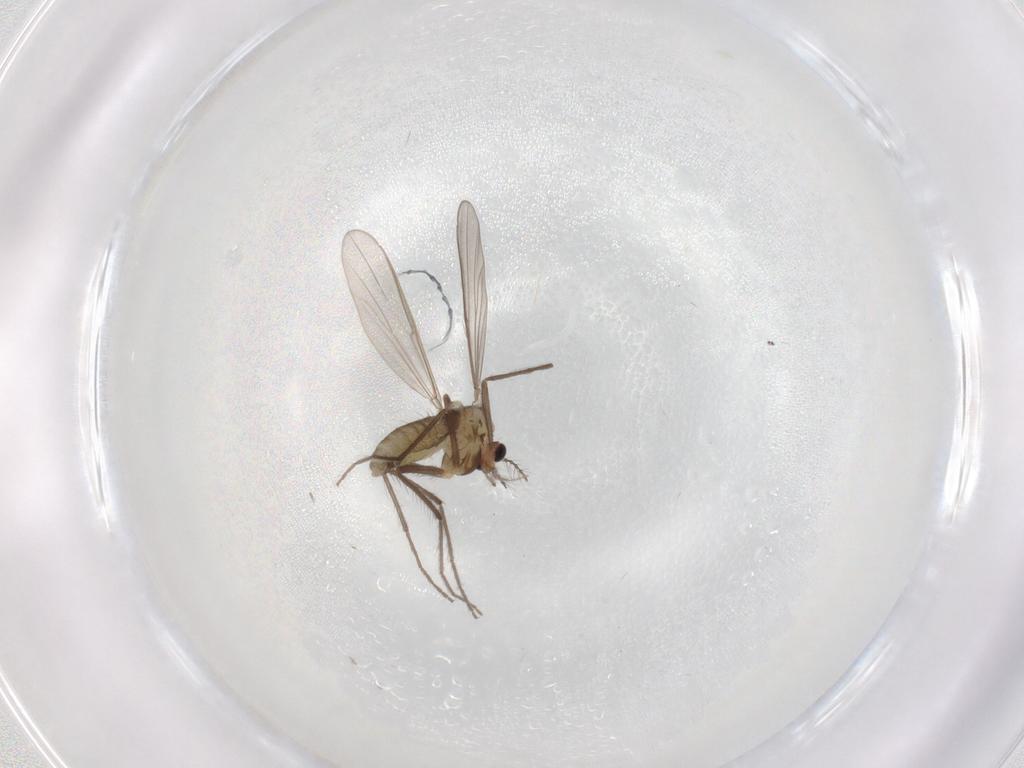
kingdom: Animalia
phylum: Arthropoda
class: Insecta
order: Diptera
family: Chironomidae
